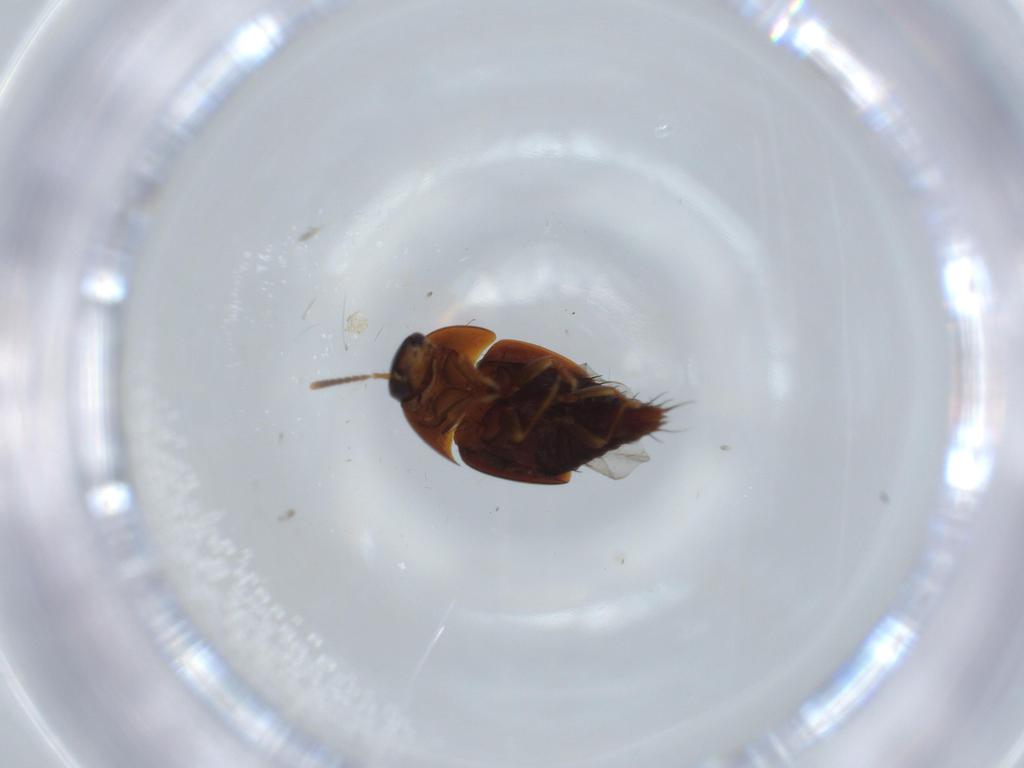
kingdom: Animalia
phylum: Arthropoda
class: Insecta
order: Coleoptera
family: Staphylinidae
